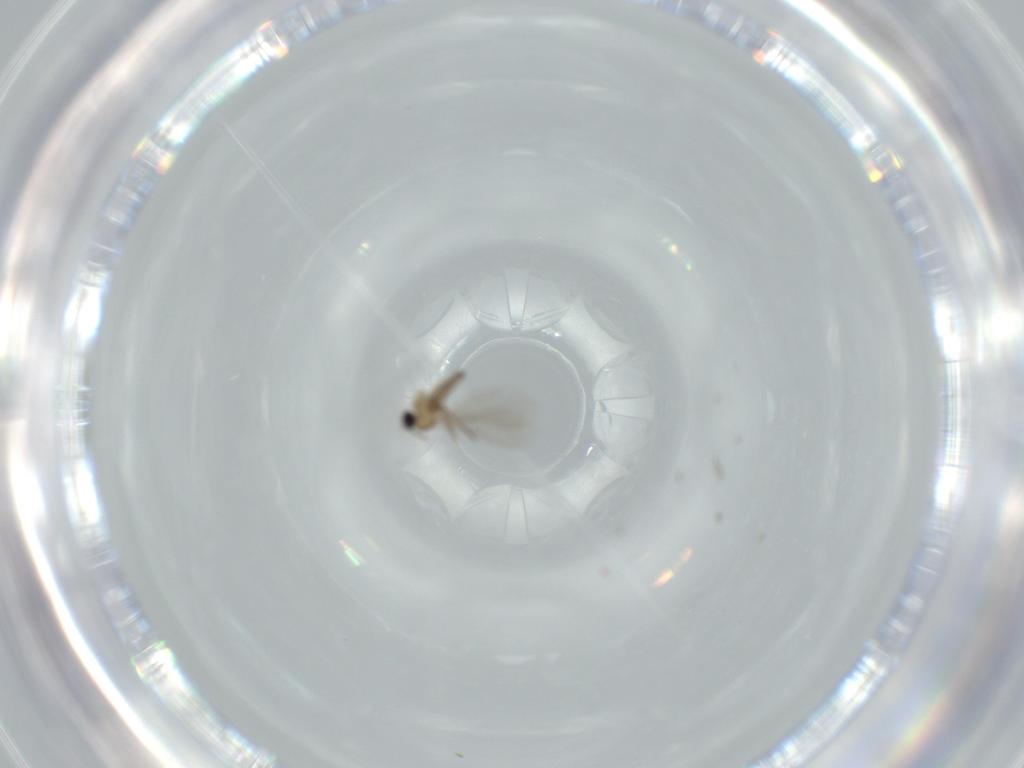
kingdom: Animalia
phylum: Arthropoda
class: Insecta
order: Diptera
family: Cecidomyiidae
